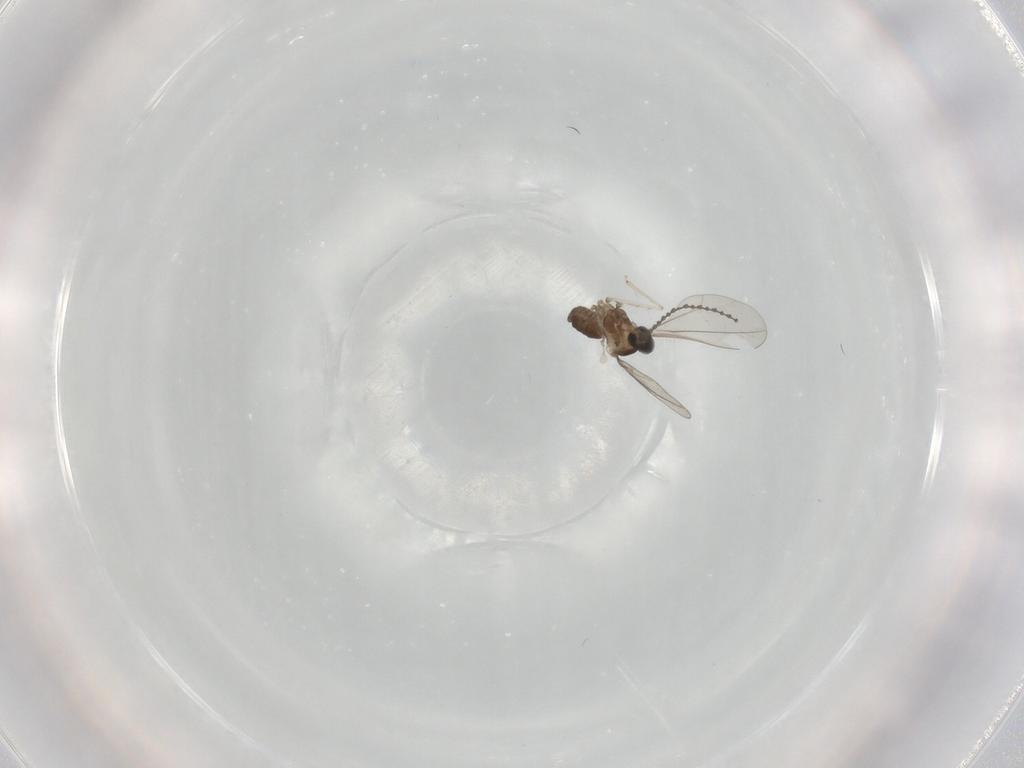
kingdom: Animalia
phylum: Arthropoda
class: Insecta
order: Diptera
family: Cecidomyiidae
